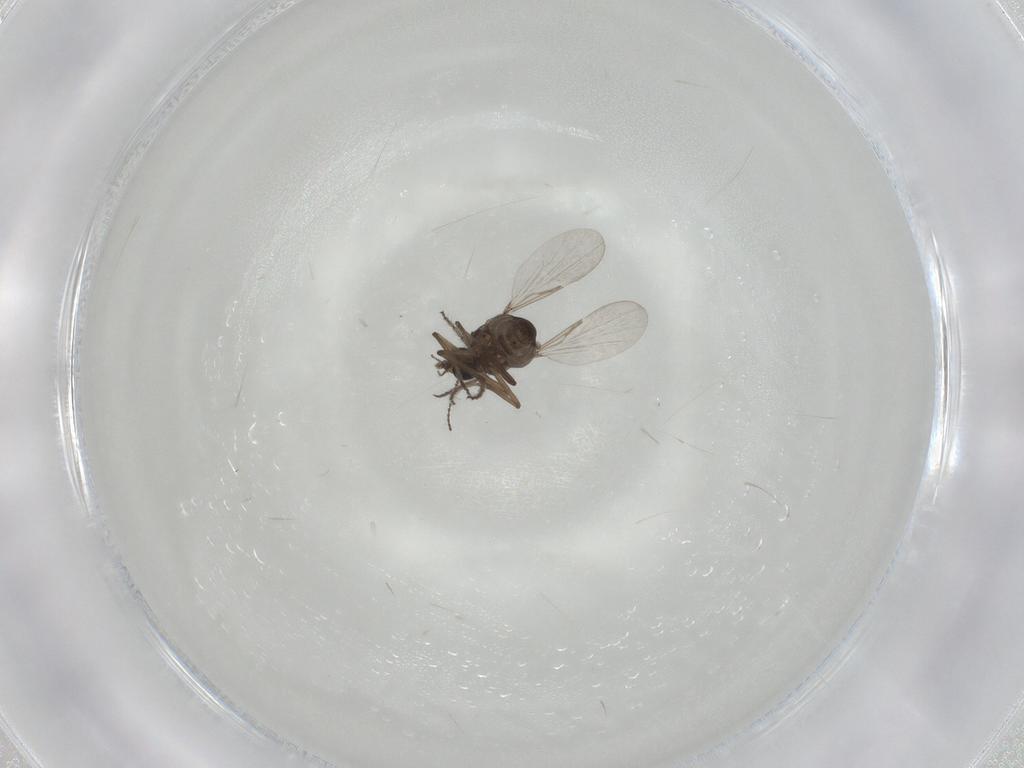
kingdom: Animalia
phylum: Arthropoda
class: Insecta
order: Diptera
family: Ceratopogonidae
